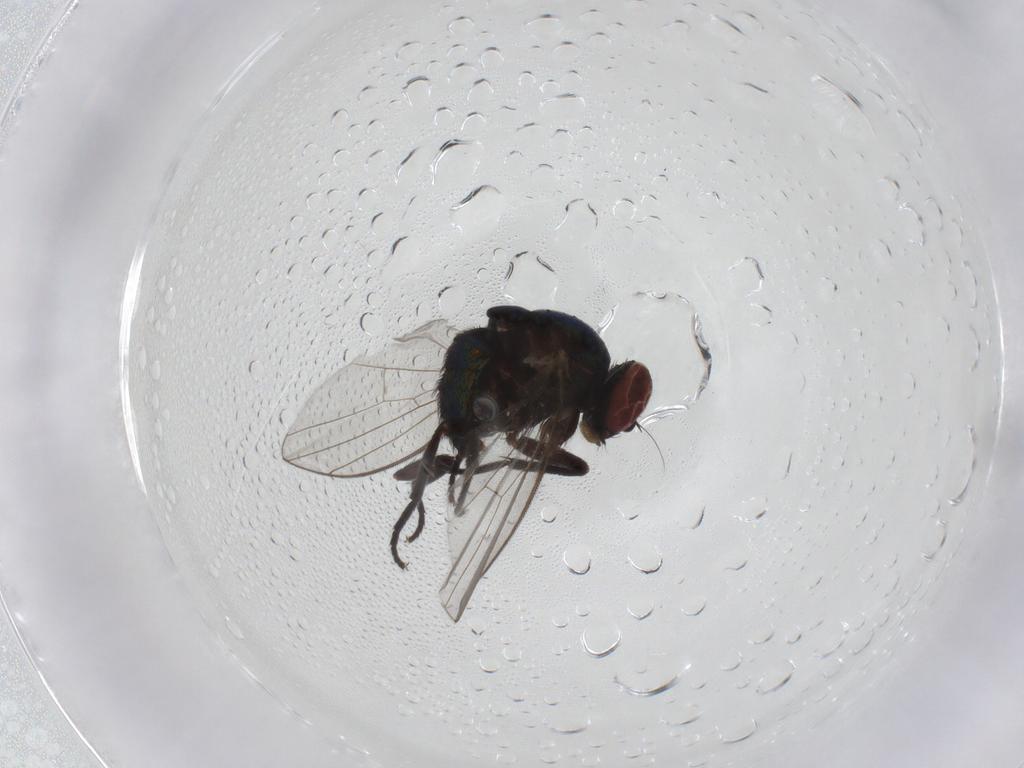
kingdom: Animalia
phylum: Arthropoda
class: Insecta
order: Diptera
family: Agromyzidae
